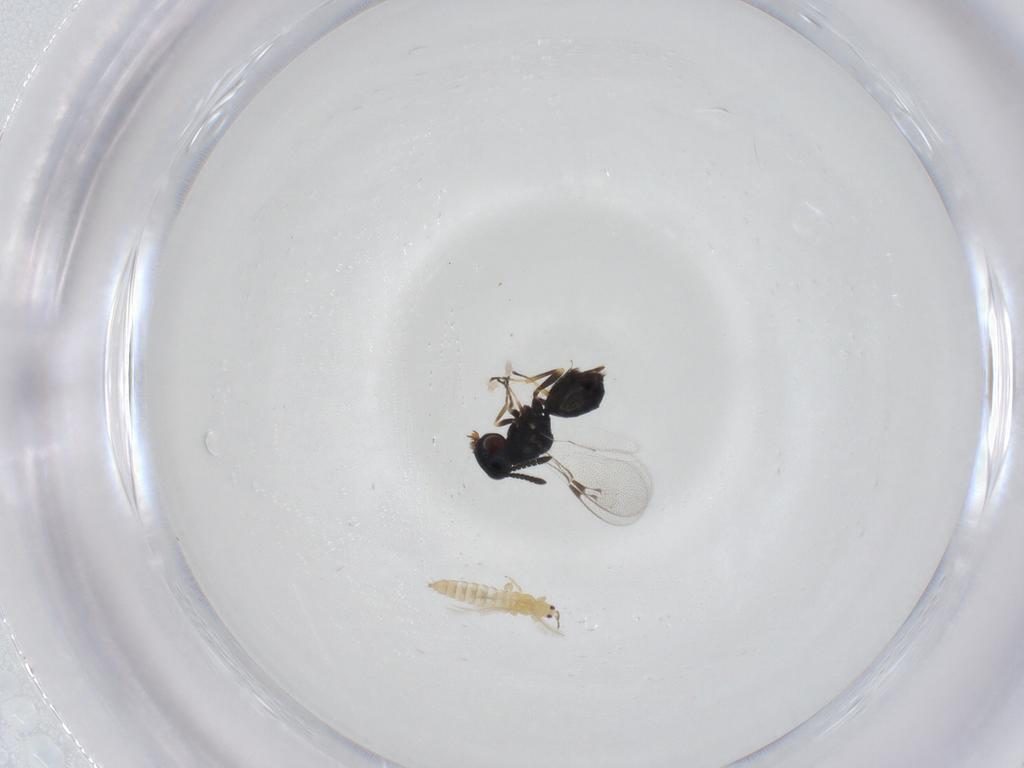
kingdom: Animalia
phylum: Arthropoda
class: Insecta
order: Hymenoptera
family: Pteromalidae
